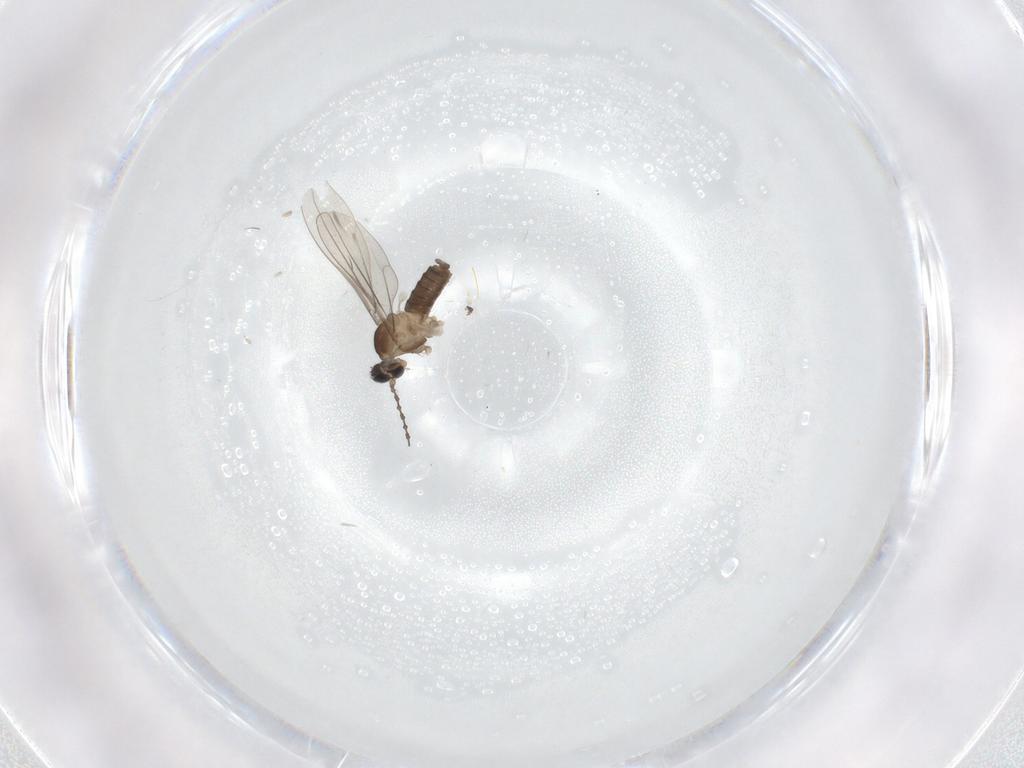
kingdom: Animalia
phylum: Arthropoda
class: Insecta
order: Diptera
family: Cecidomyiidae
